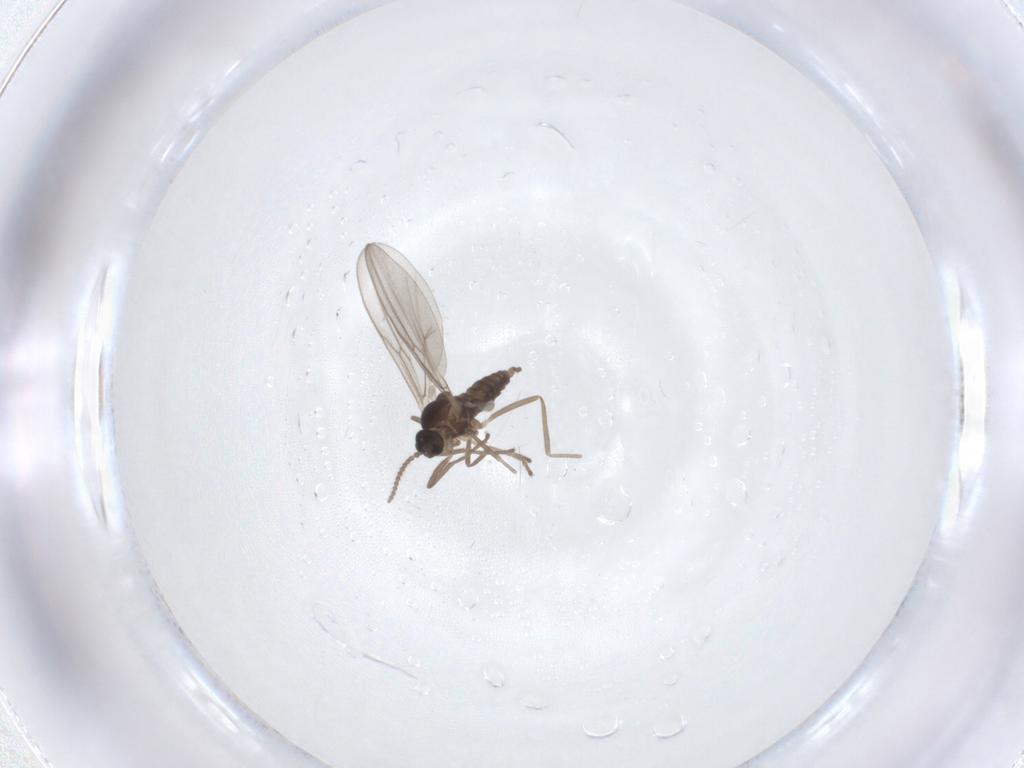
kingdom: Animalia
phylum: Arthropoda
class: Insecta
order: Diptera
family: Cecidomyiidae
